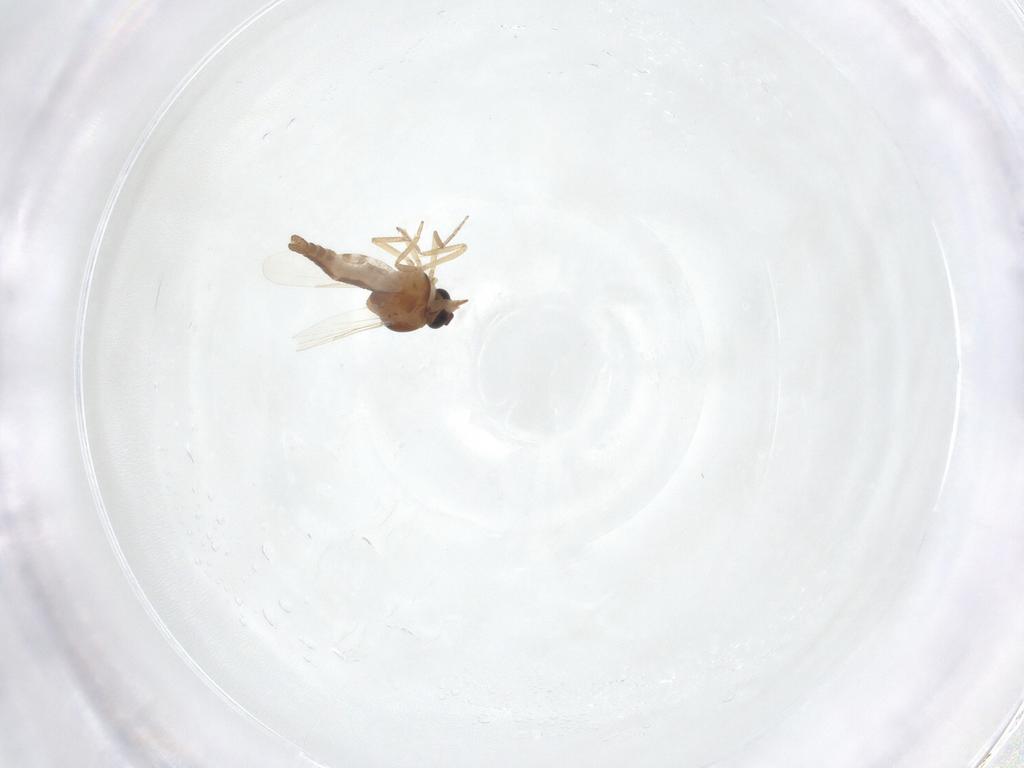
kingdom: Animalia
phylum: Arthropoda
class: Insecta
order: Diptera
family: Ceratopogonidae
